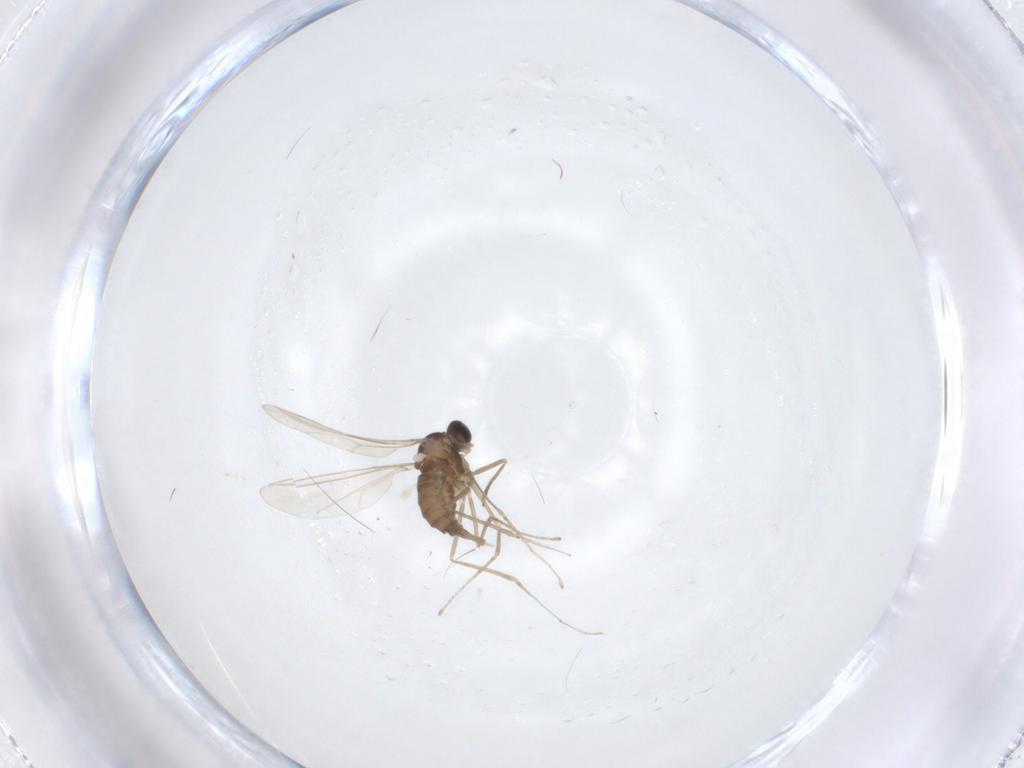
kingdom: Animalia
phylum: Arthropoda
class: Insecta
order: Diptera
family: Cecidomyiidae
